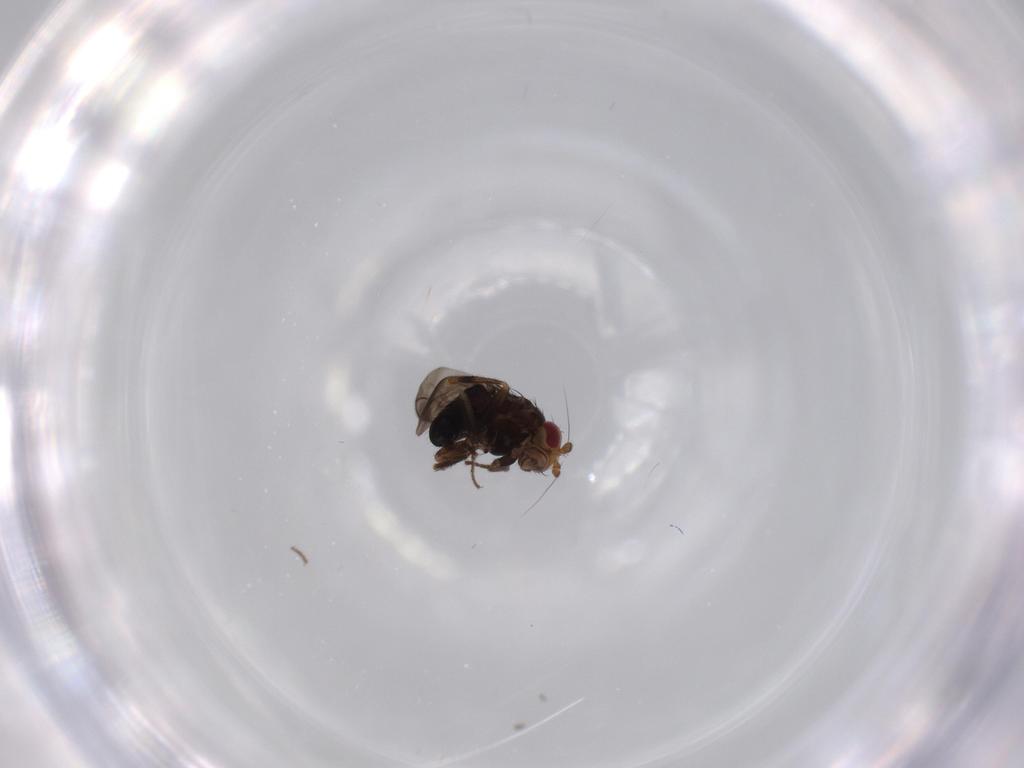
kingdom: Animalia
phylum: Arthropoda
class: Insecta
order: Diptera
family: Sphaeroceridae
